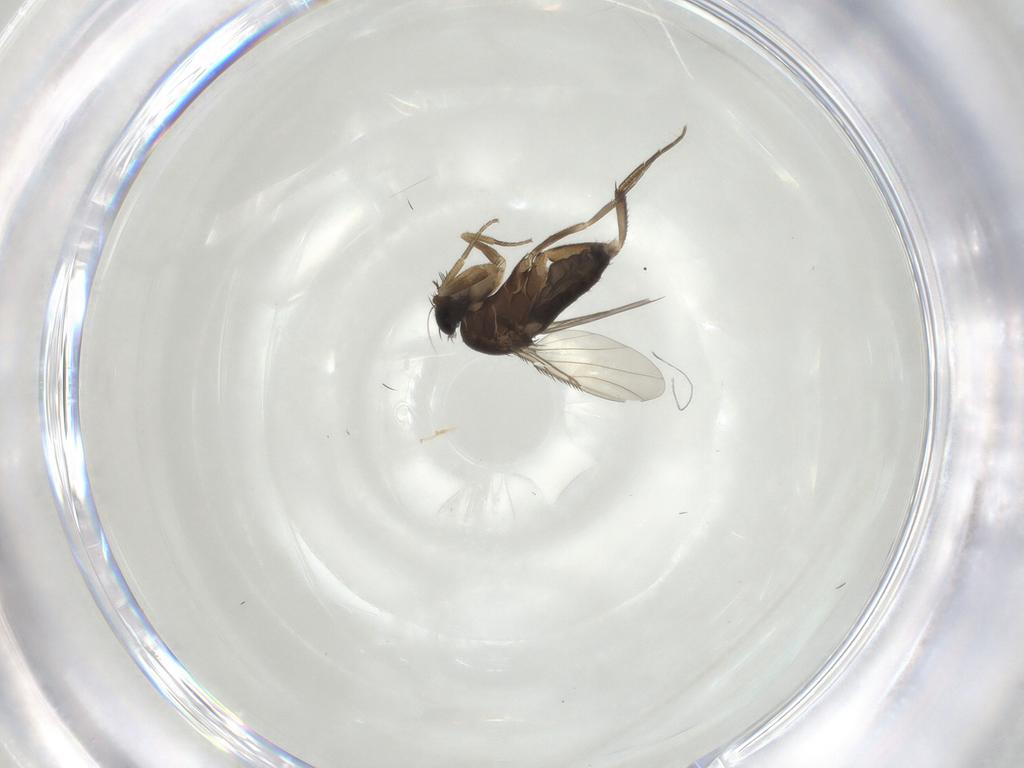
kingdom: Animalia
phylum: Arthropoda
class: Insecta
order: Diptera
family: Phoridae
